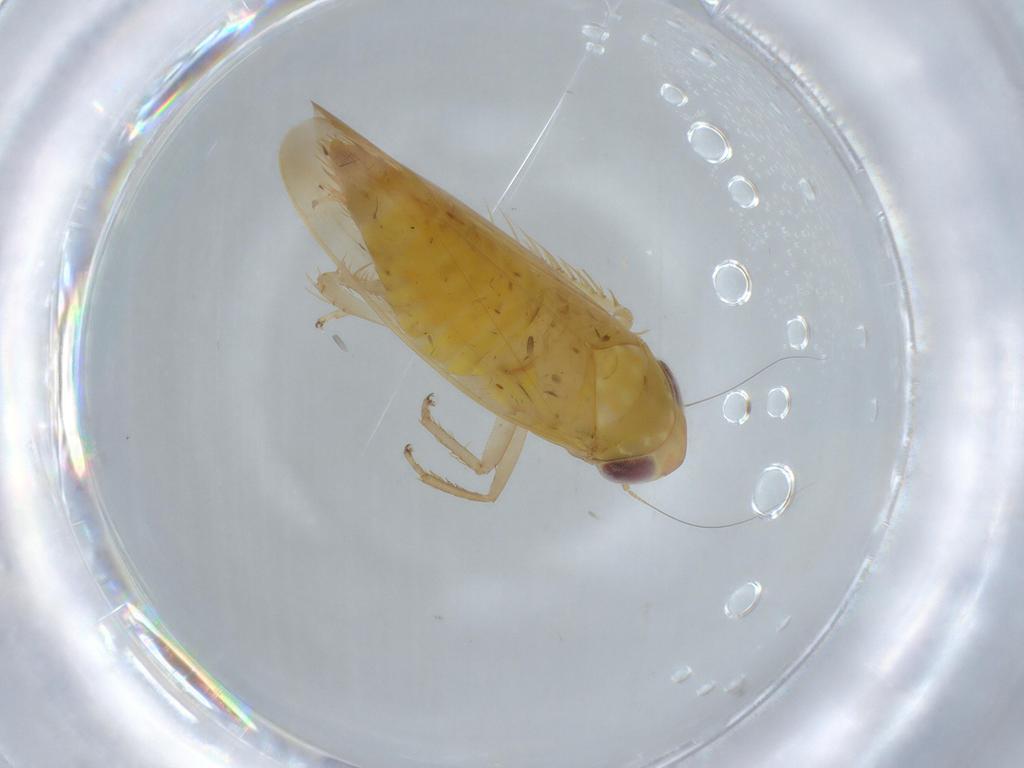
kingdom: Animalia
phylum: Arthropoda
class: Insecta
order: Hemiptera
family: Cicadellidae
